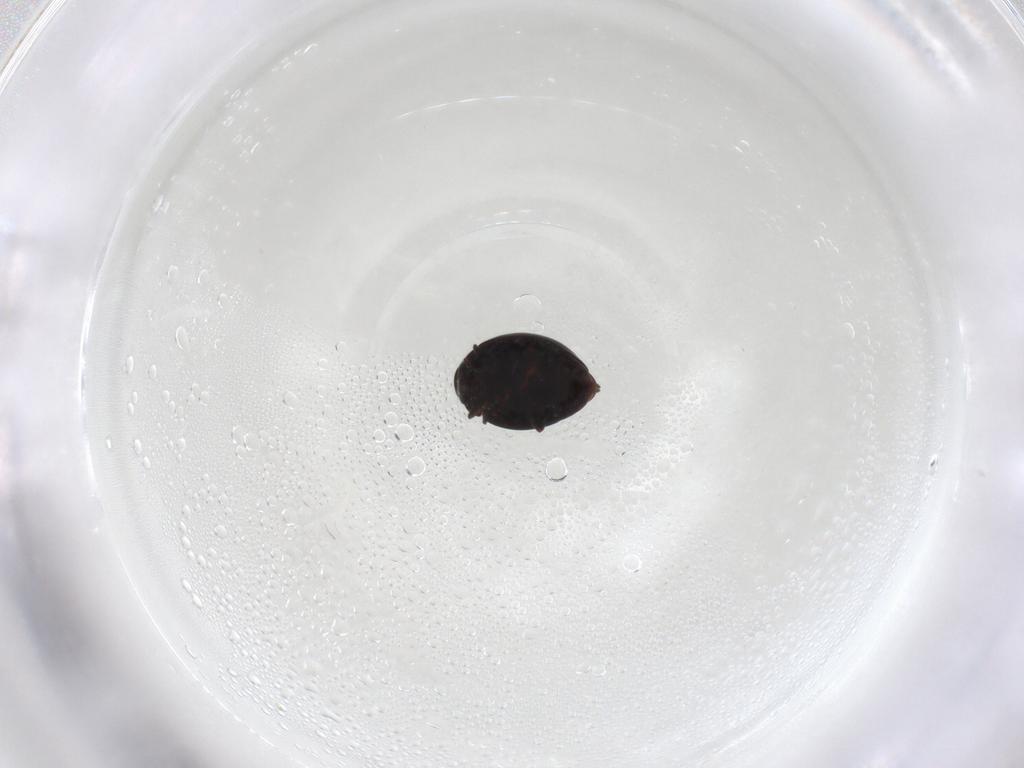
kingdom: Animalia
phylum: Arthropoda
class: Insecta
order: Coleoptera
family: Coccinellidae
